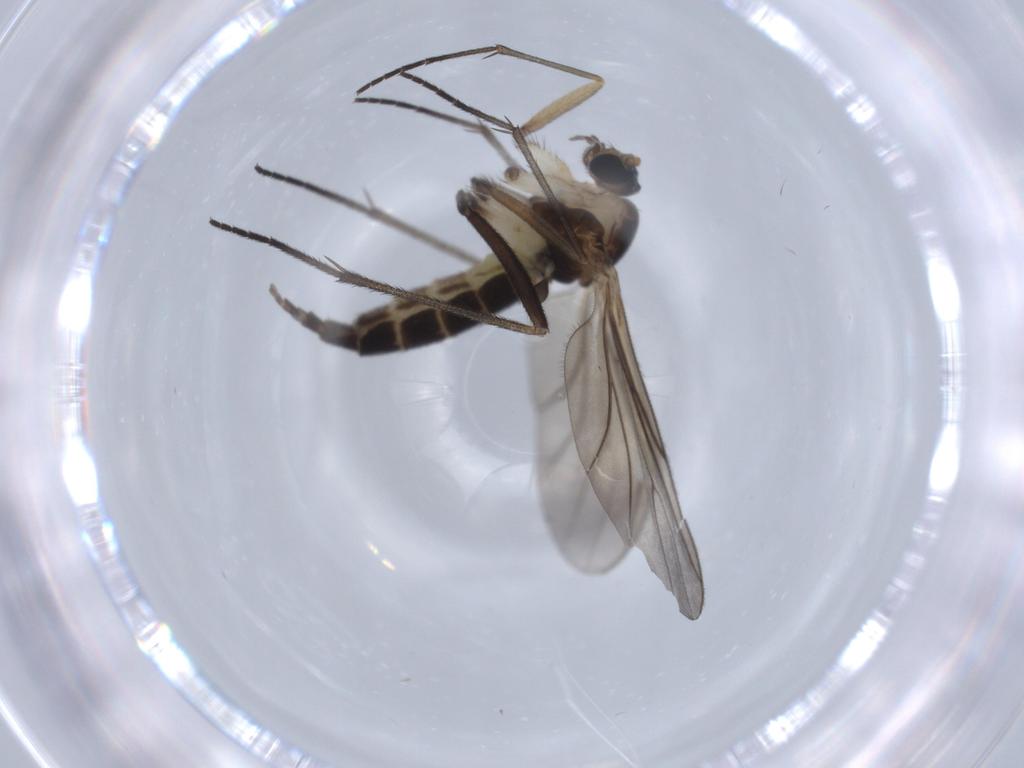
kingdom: Animalia
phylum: Arthropoda
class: Insecta
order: Diptera
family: Sciaridae
